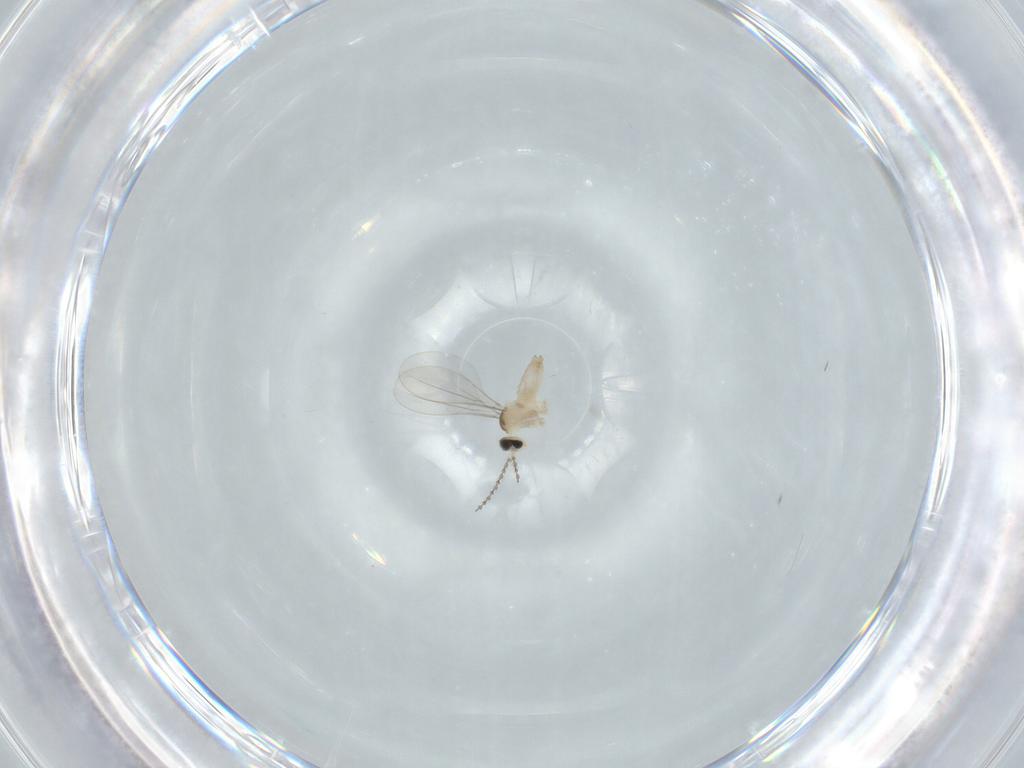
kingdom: Animalia
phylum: Arthropoda
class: Insecta
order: Diptera
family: Cecidomyiidae
